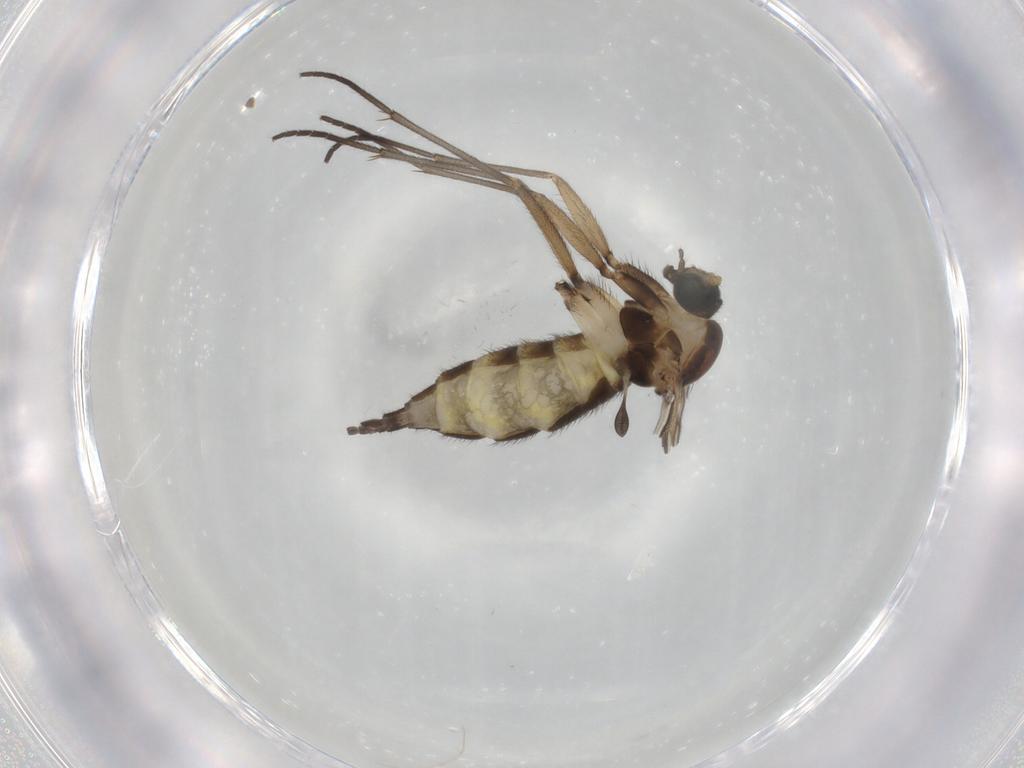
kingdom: Animalia
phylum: Arthropoda
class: Insecta
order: Diptera
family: Sciaridae
